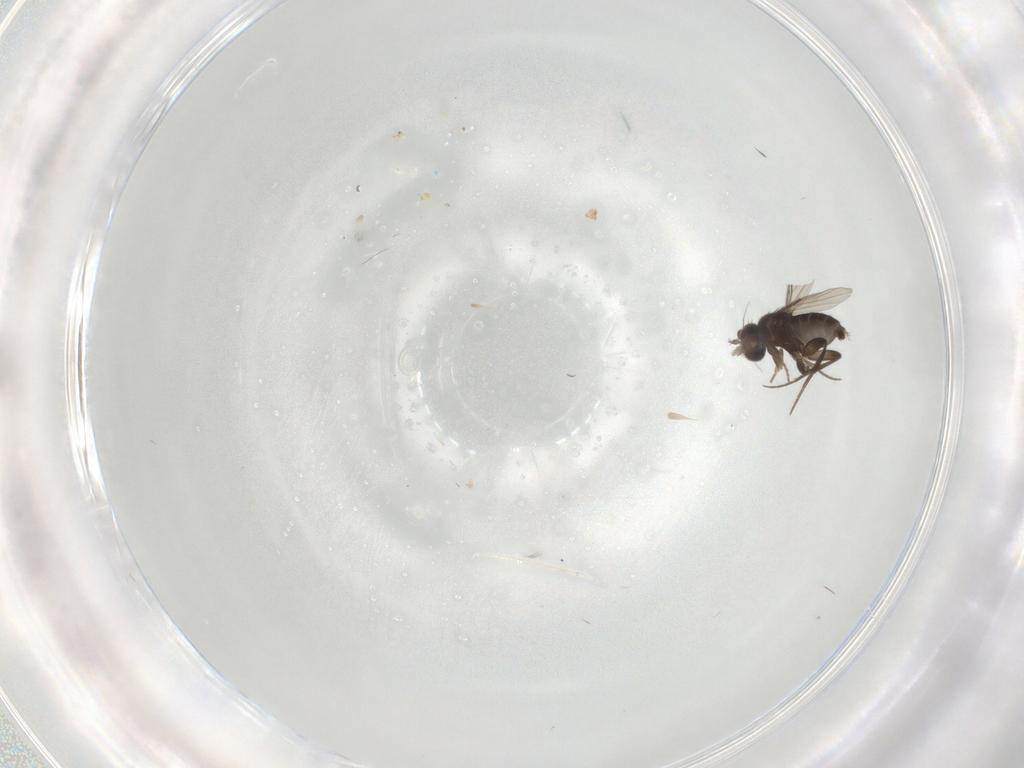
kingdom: Animalia
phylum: Arthropoda
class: Insecta
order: Diptera
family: Phoridae
